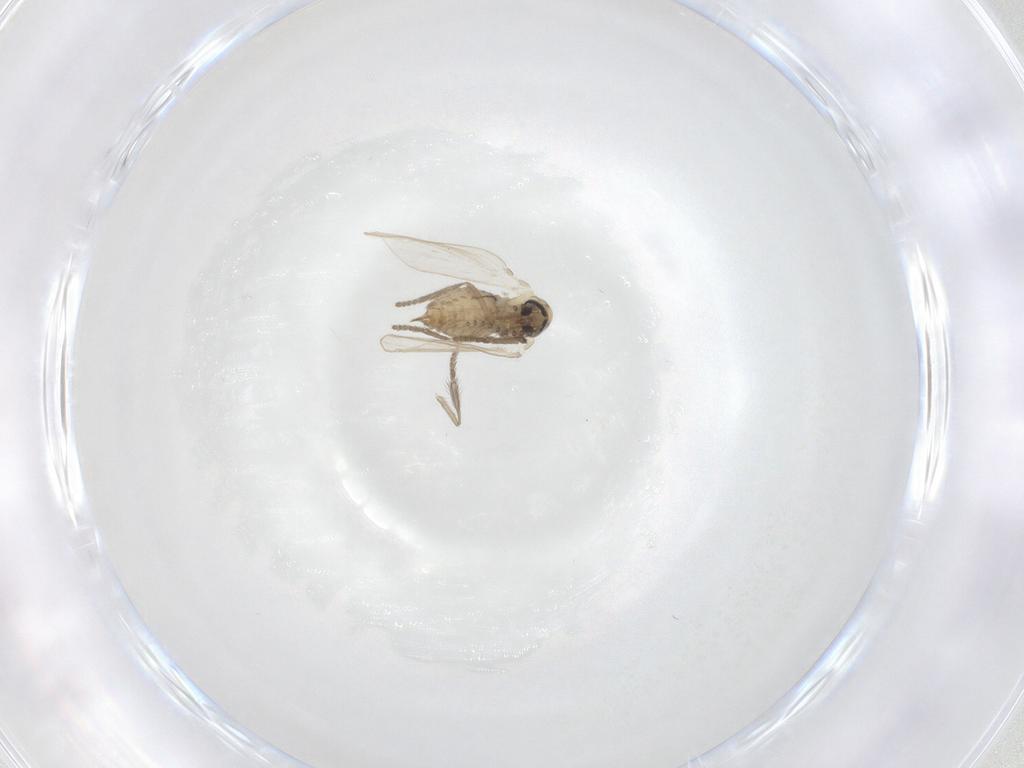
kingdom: Animalia
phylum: Arthropoda
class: Insecta
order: Diptera
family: Psychodidae
